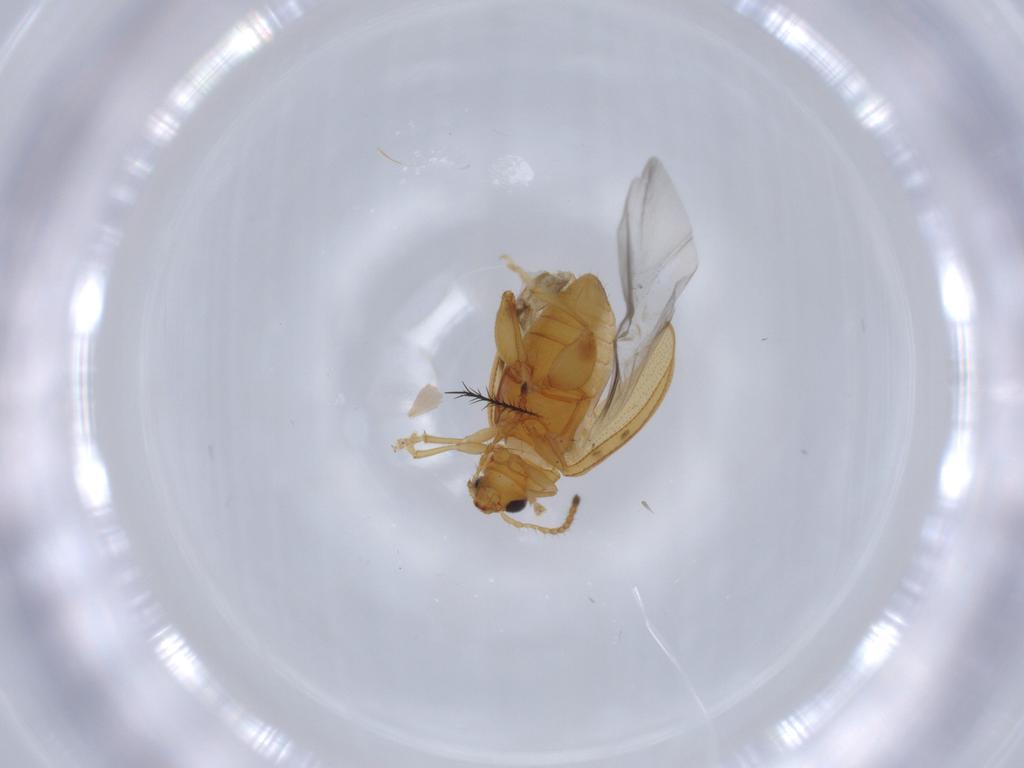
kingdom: Animalia
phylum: Arthropoda
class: Insecta
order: Coleoptera
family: Chrysomelidae
